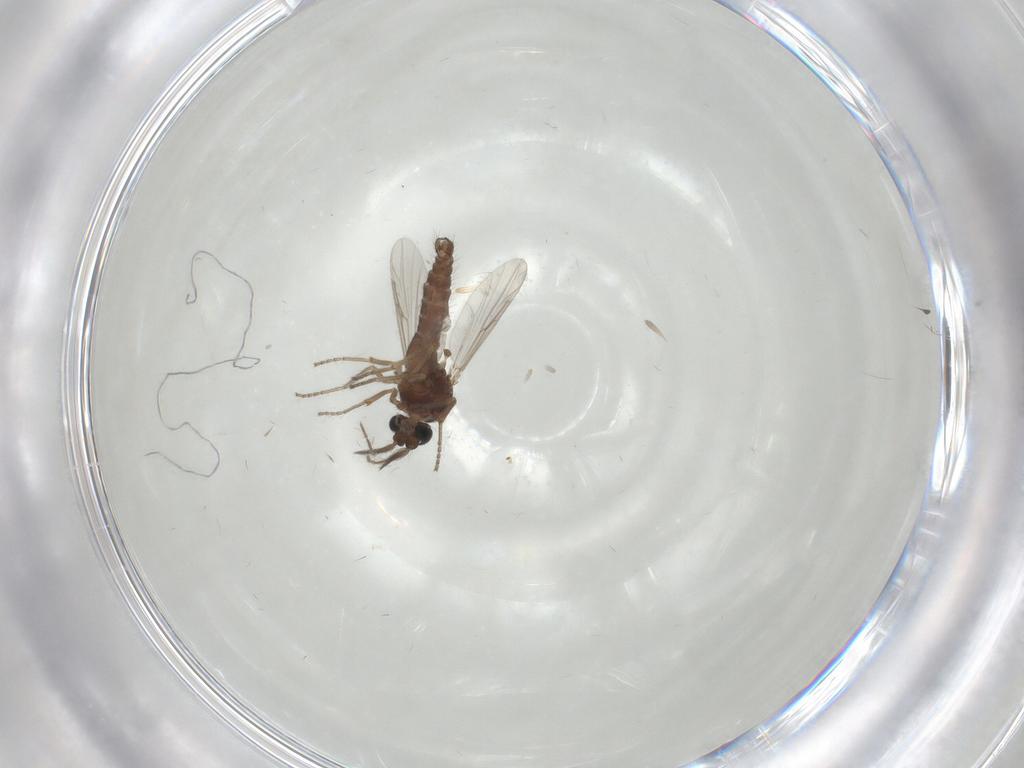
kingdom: Animalia
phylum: Arthropoda
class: Insecta
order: Diptera
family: Ceratopogonidae
